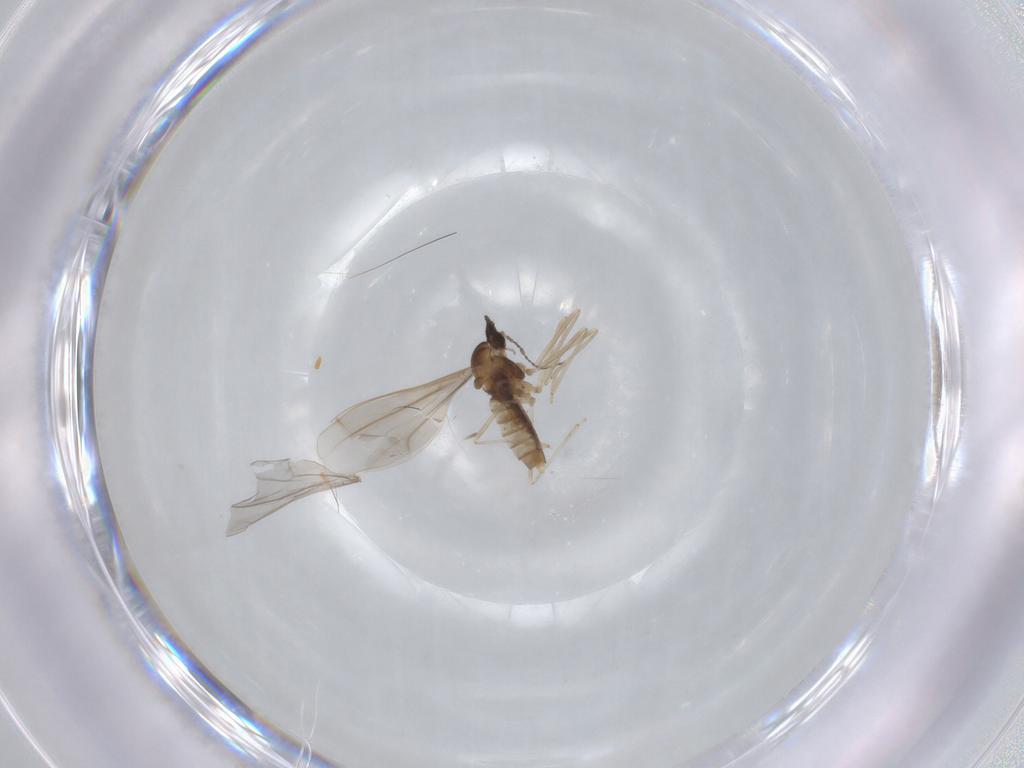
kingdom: Animalia
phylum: Arthropoda
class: Insecta
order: Diptera
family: Cecidomyiidae
